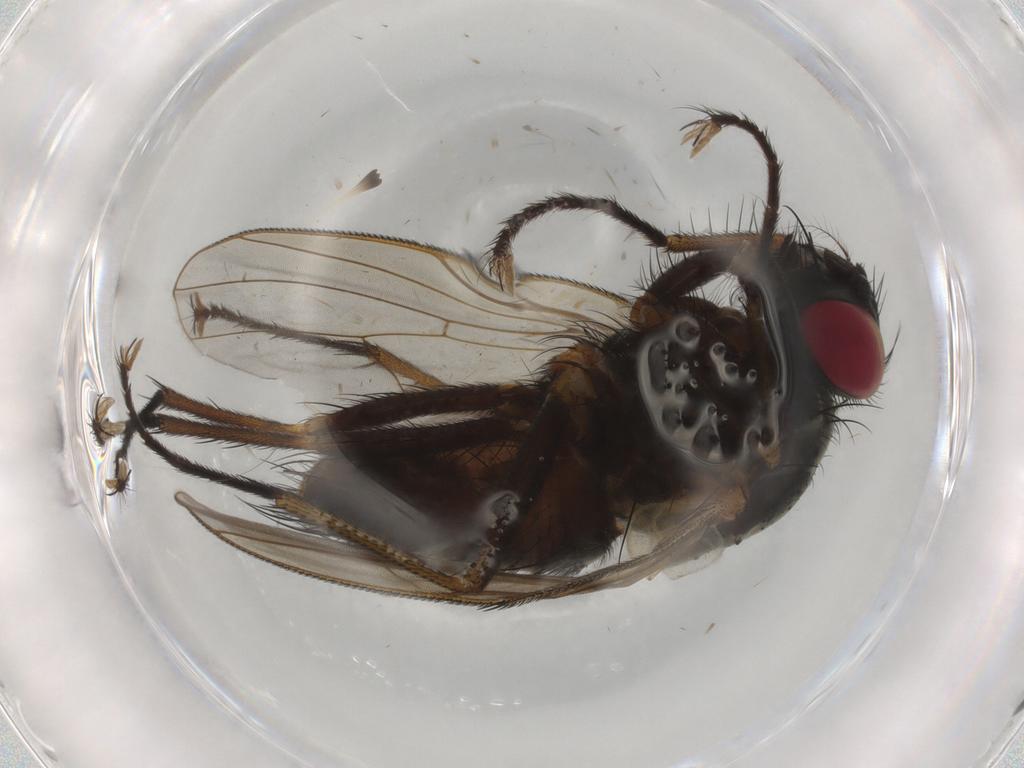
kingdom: Animalia
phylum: Arthropoda
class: Insecta
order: Diptera
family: Muscidae
